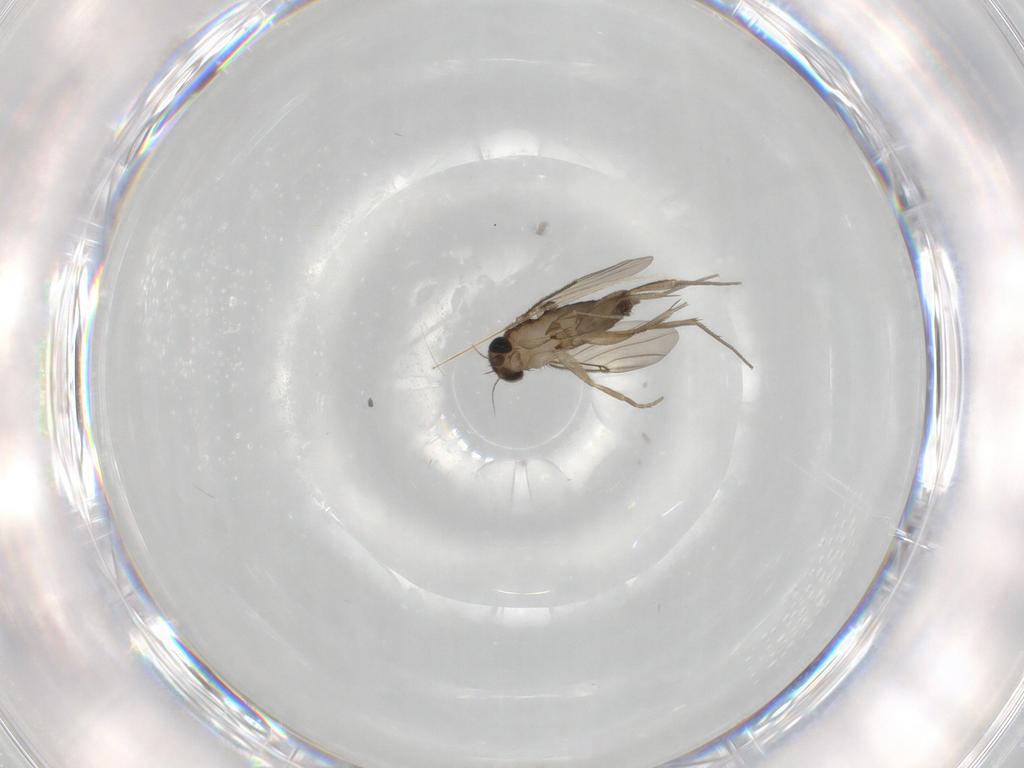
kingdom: Animalia
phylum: Arthropoda
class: Insecta
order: Diptera
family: Phoridae
